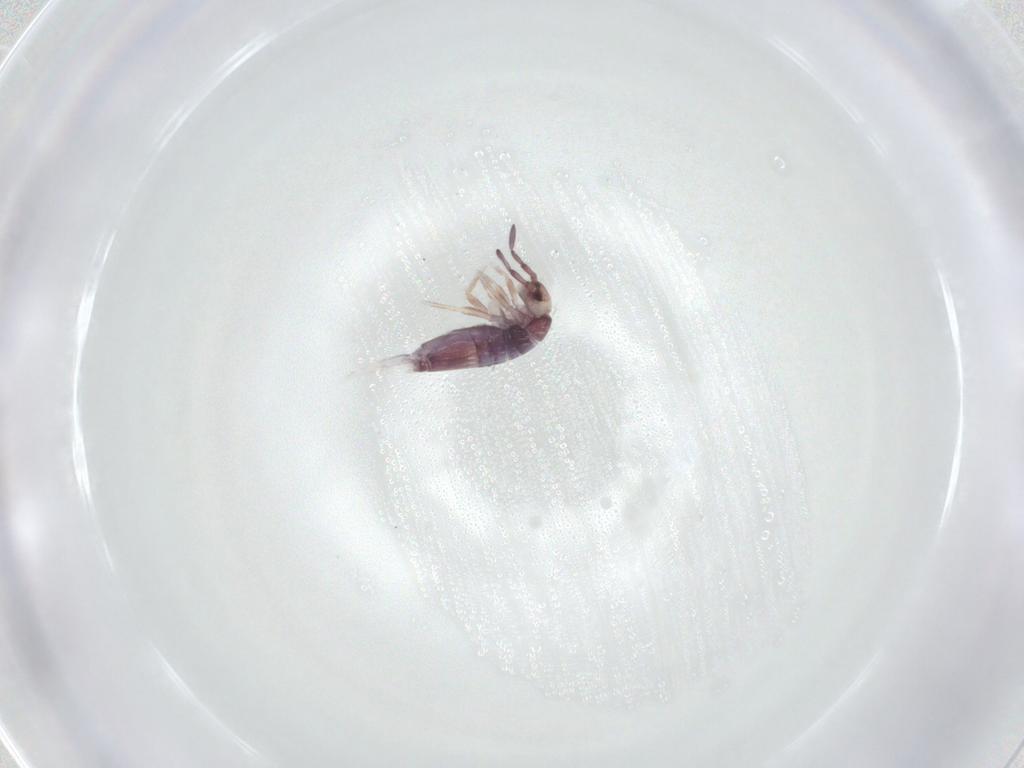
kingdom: Animalia
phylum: Arthropoda
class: Collembola
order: Entomobryomorpha
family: Entomobryidae
